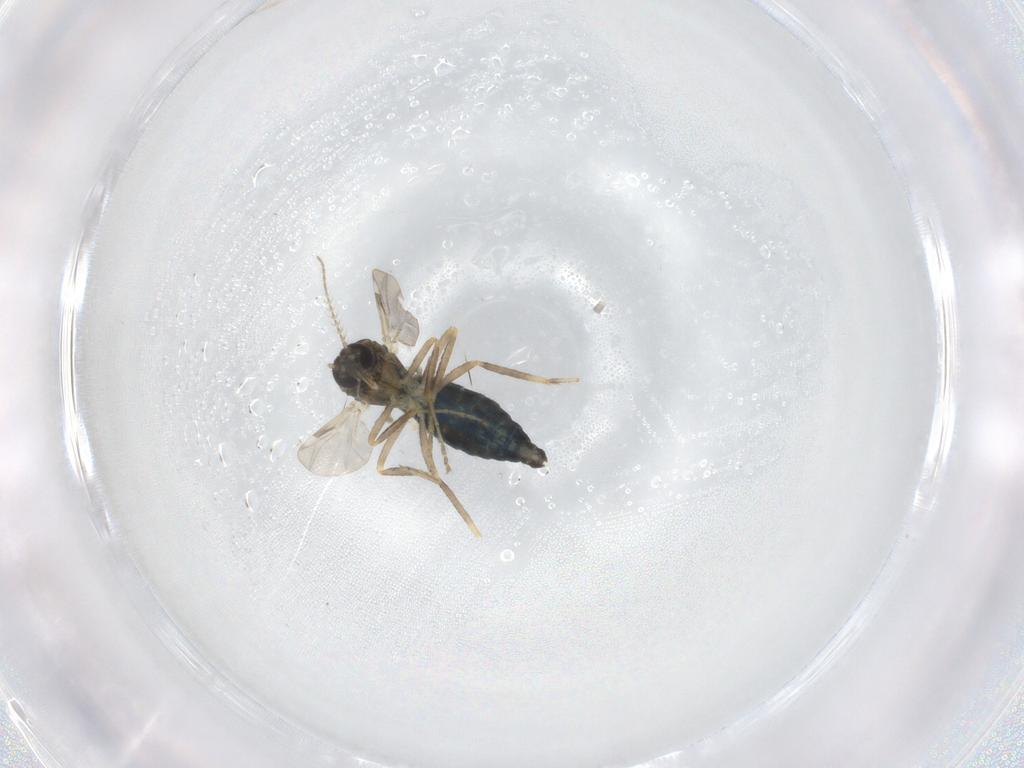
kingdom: Animalia
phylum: Arthropoda
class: Insecta
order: Diptera
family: Ceratopogonidae
